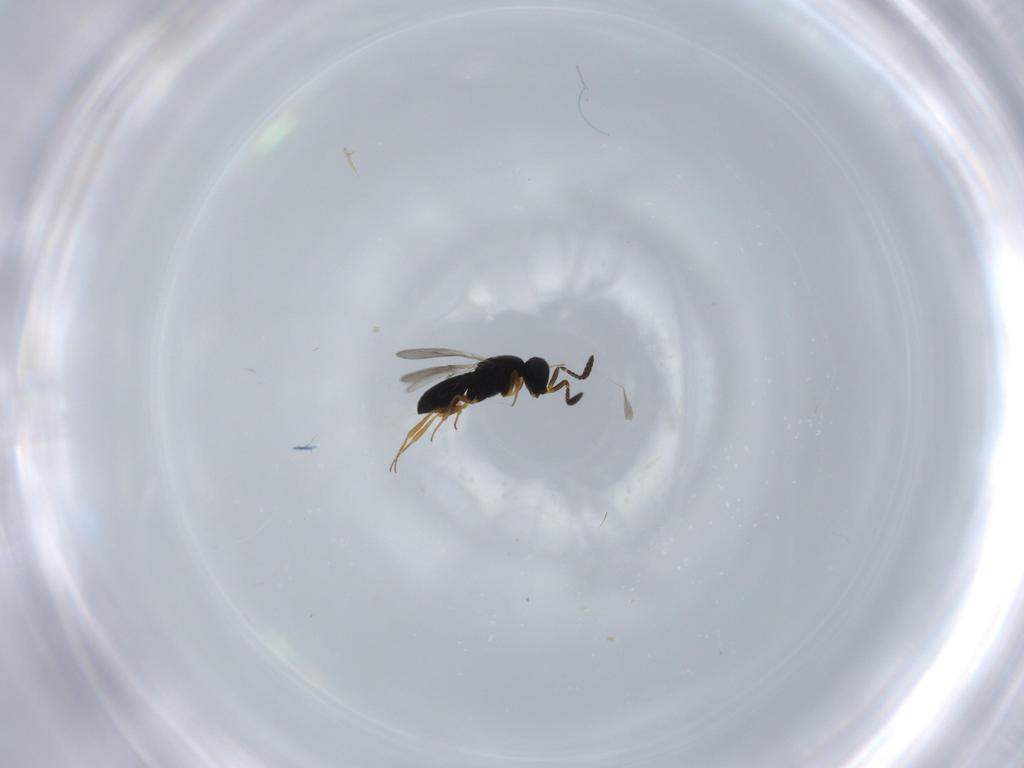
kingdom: Animalia
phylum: Arthropoda
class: Insecta
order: Hymenoptera
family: Scelionidae
